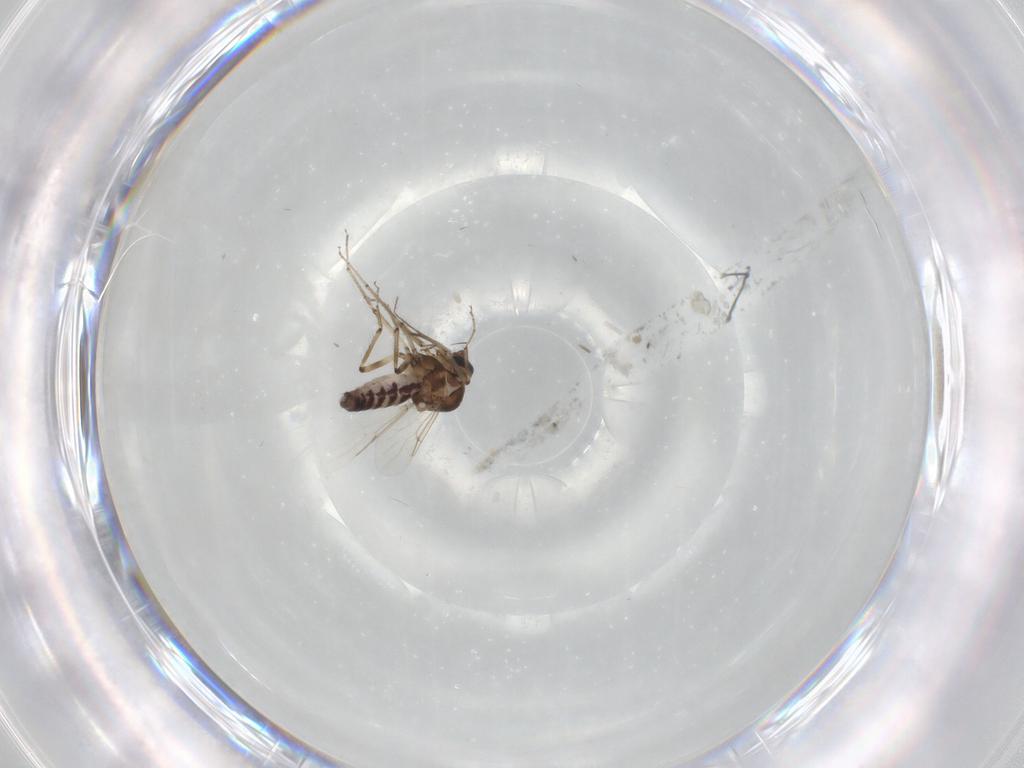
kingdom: Animalia
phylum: Arthropoda
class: Insecta
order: Diptera
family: Ceratopogonidae
